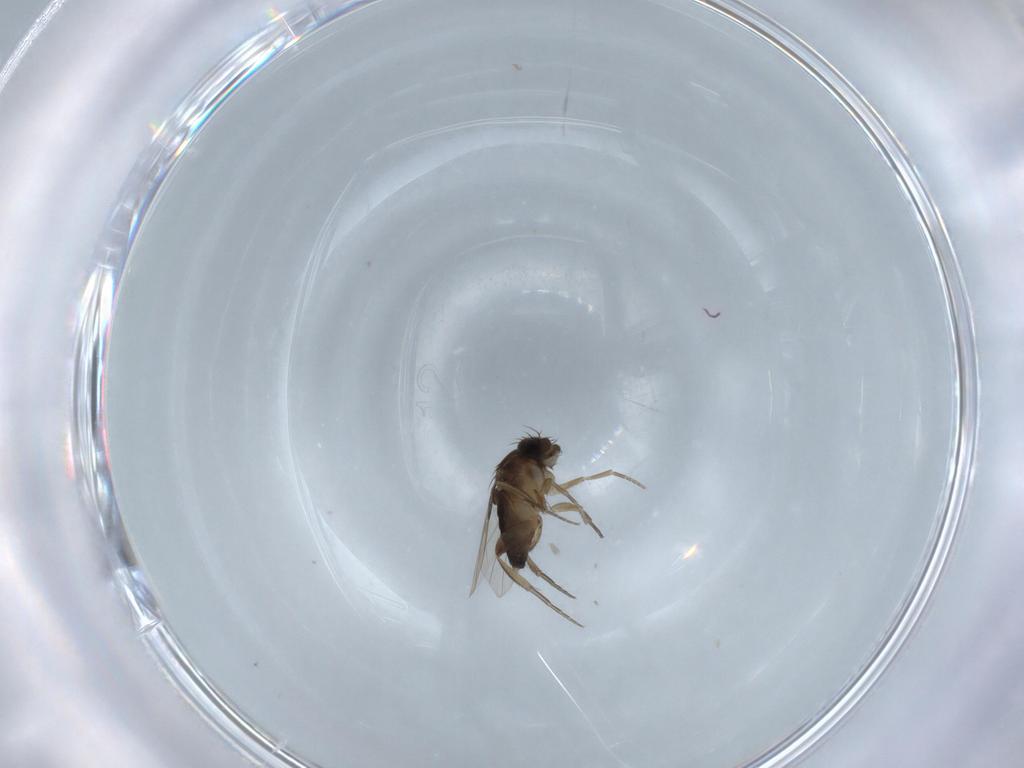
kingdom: Animalia
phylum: Arthropoda
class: Insecta
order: Diptera
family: Phoridae
